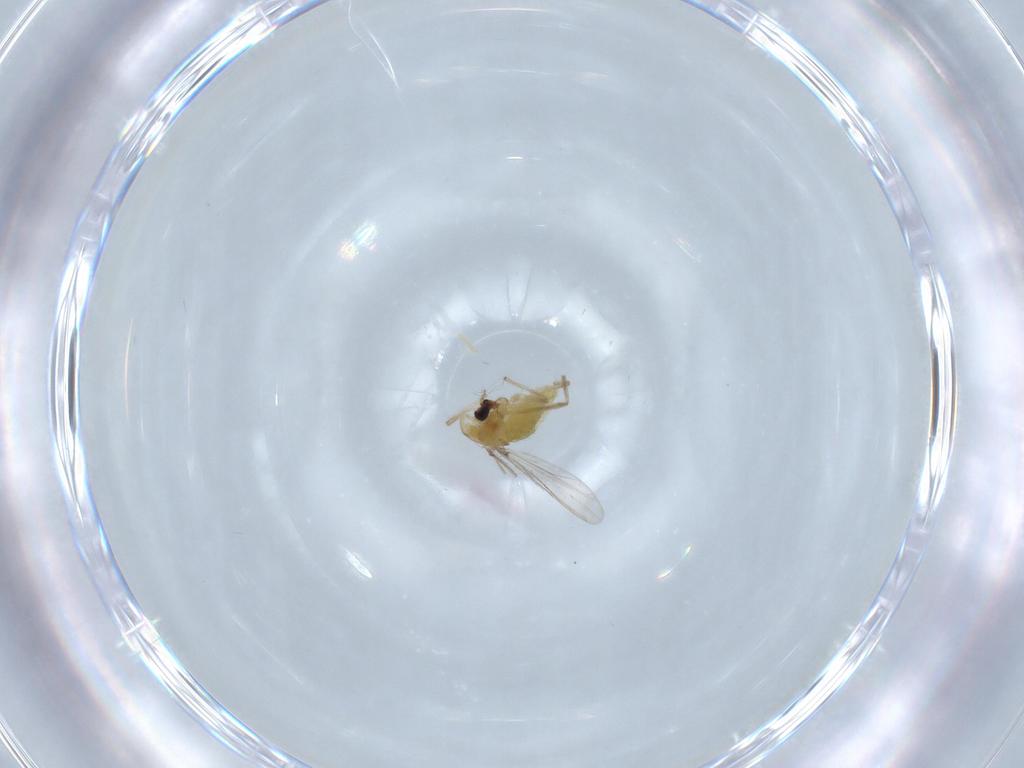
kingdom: Animalia
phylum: Arthropoda
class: Insecta
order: Diptera
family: Chironomidae
